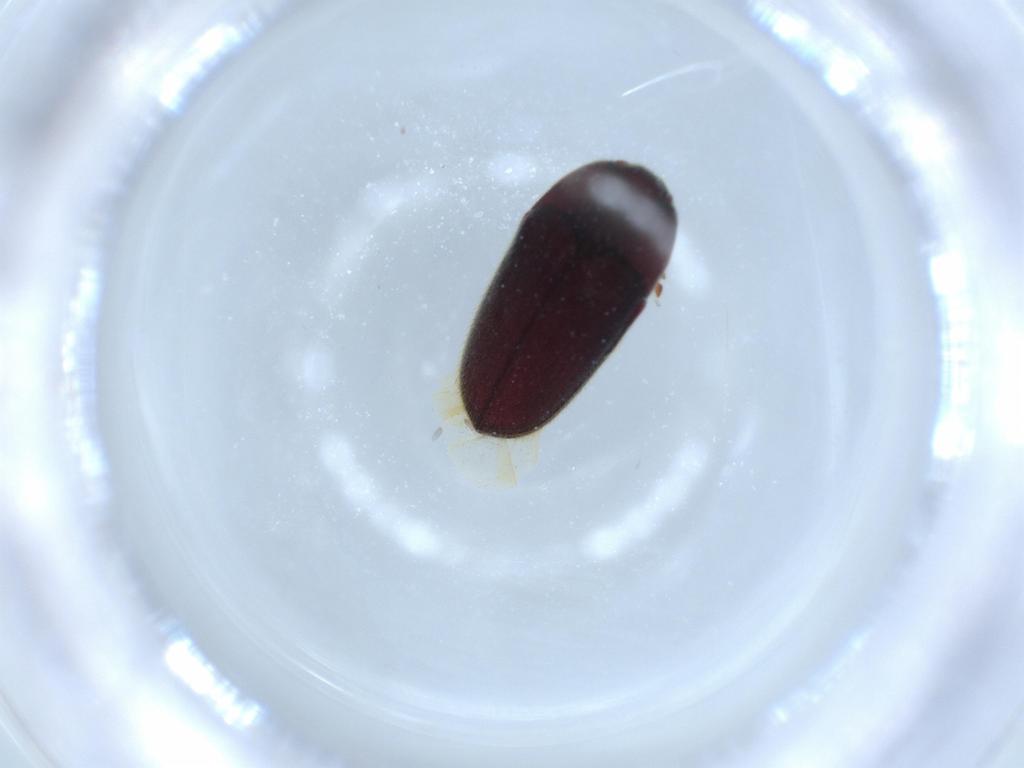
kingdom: Animalia
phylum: Arthropoda
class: Insecta
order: Coleoptera
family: Throscidae
